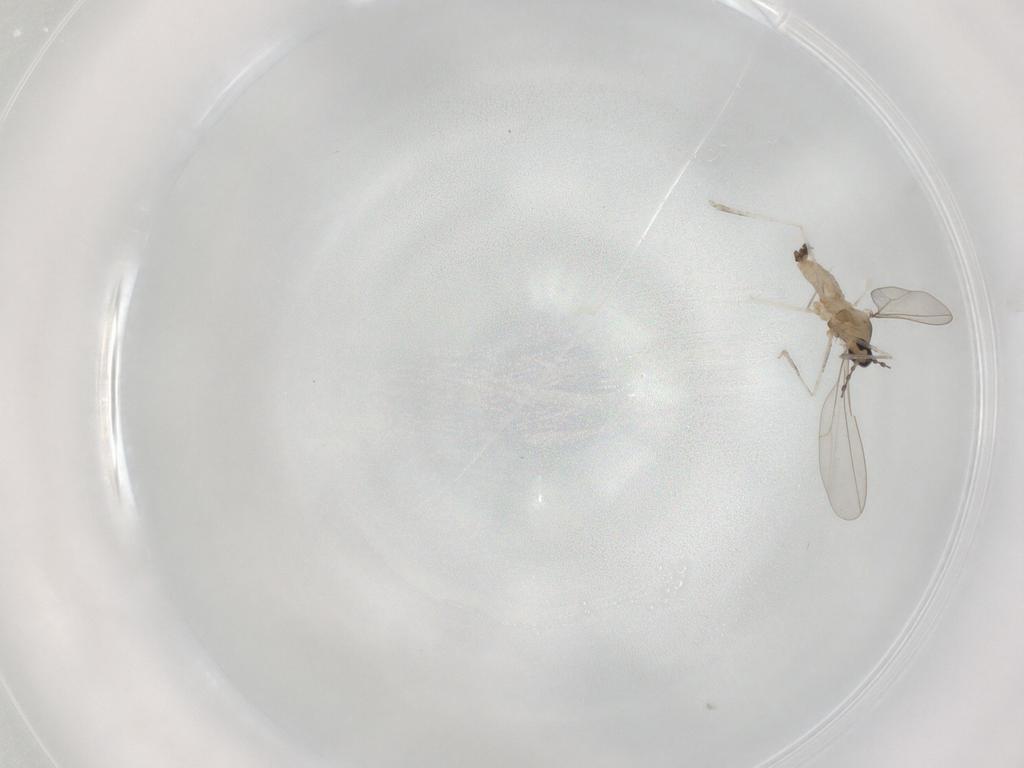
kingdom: Animalia
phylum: Arthropoda
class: Insecta
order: Diptera
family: Cecidomyiidae
